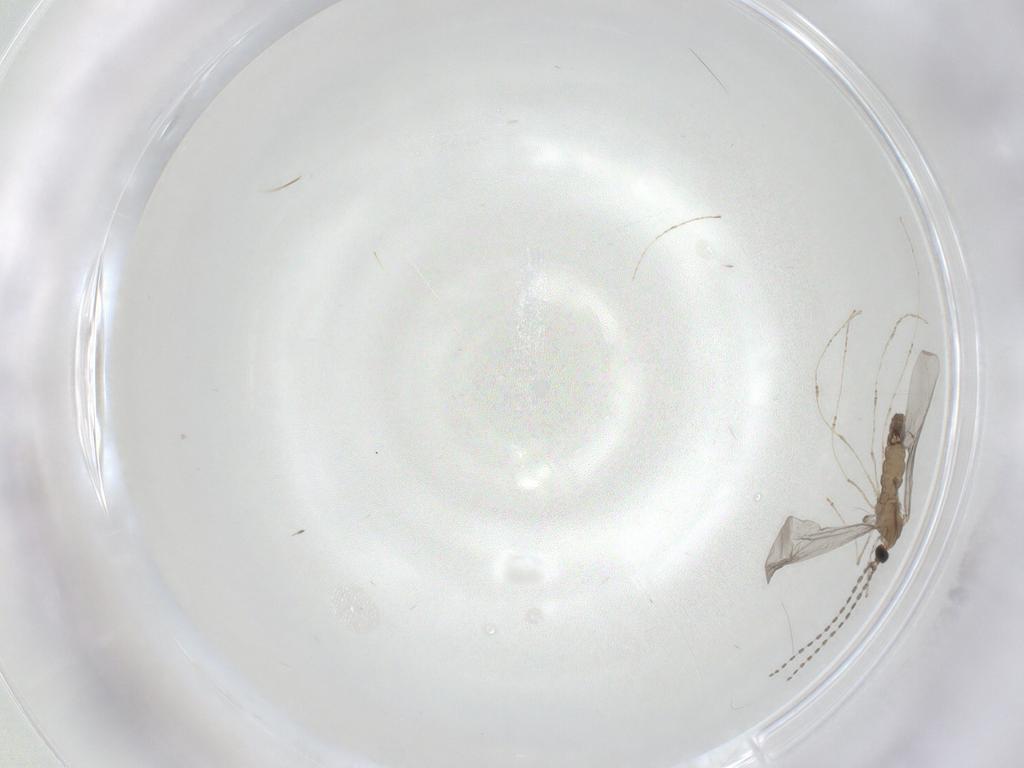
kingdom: Animalia
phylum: Arthropoda
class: Insecta
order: Diptera
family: Cecidomyiidae
